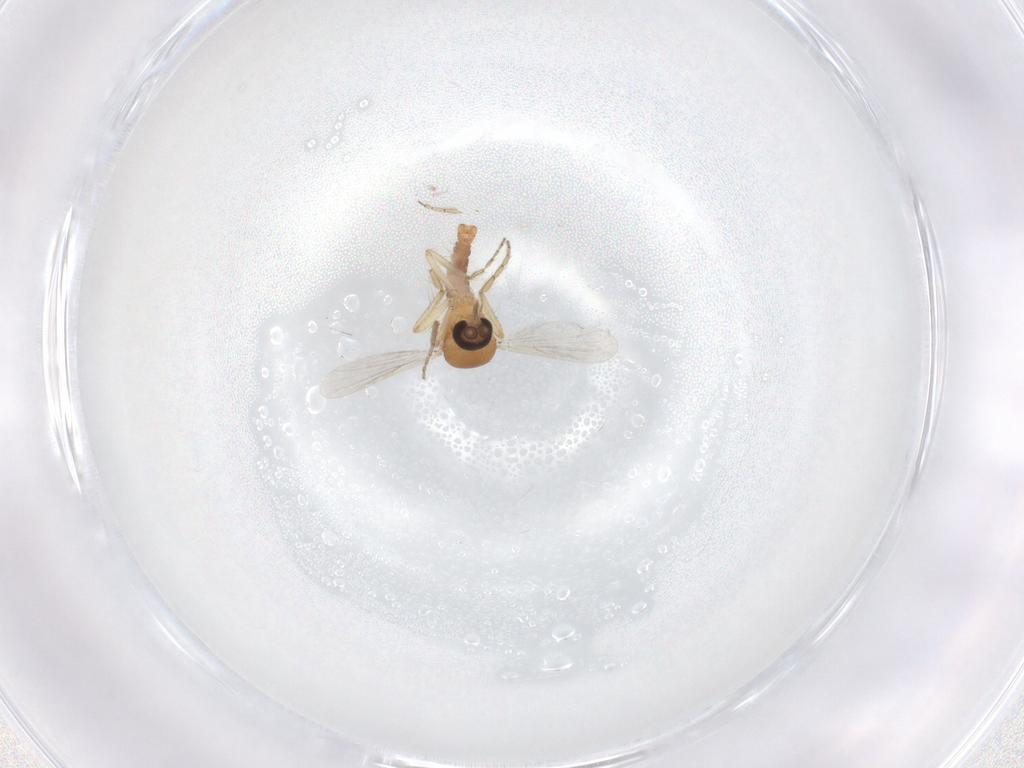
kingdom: Animalia
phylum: Arthropoda
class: Insecta
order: Diptera
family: Ceratopogonidae
